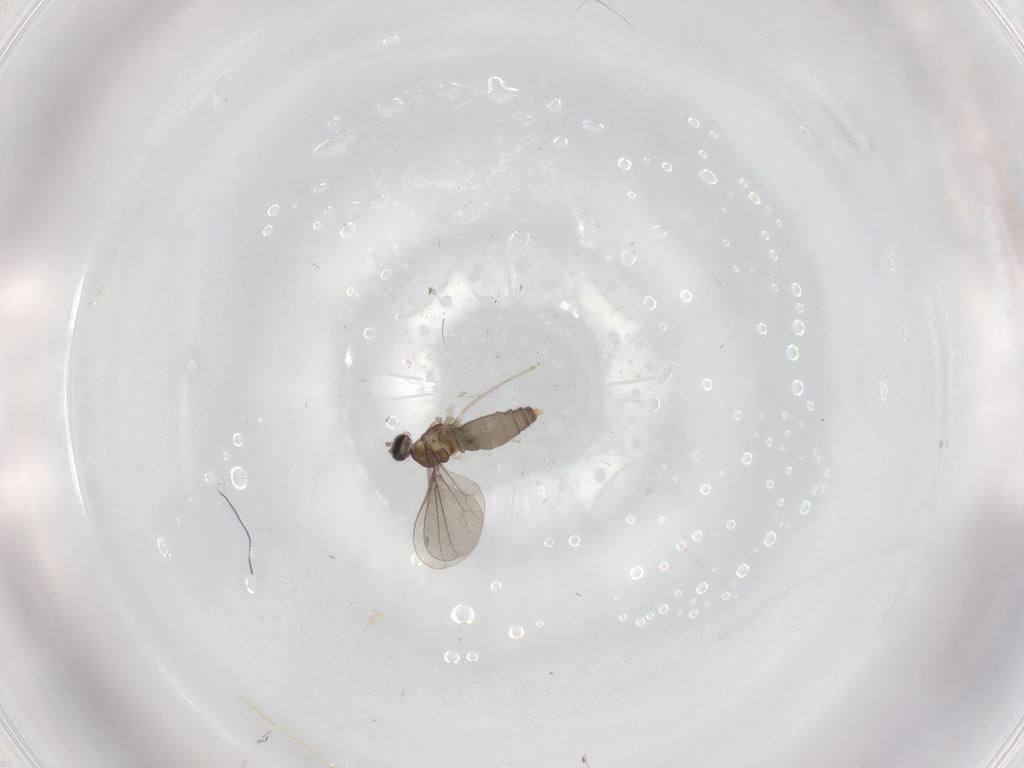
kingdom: Animalia
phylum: Arthropoda
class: Insecta
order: Diptera
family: Cecidomyiidae
